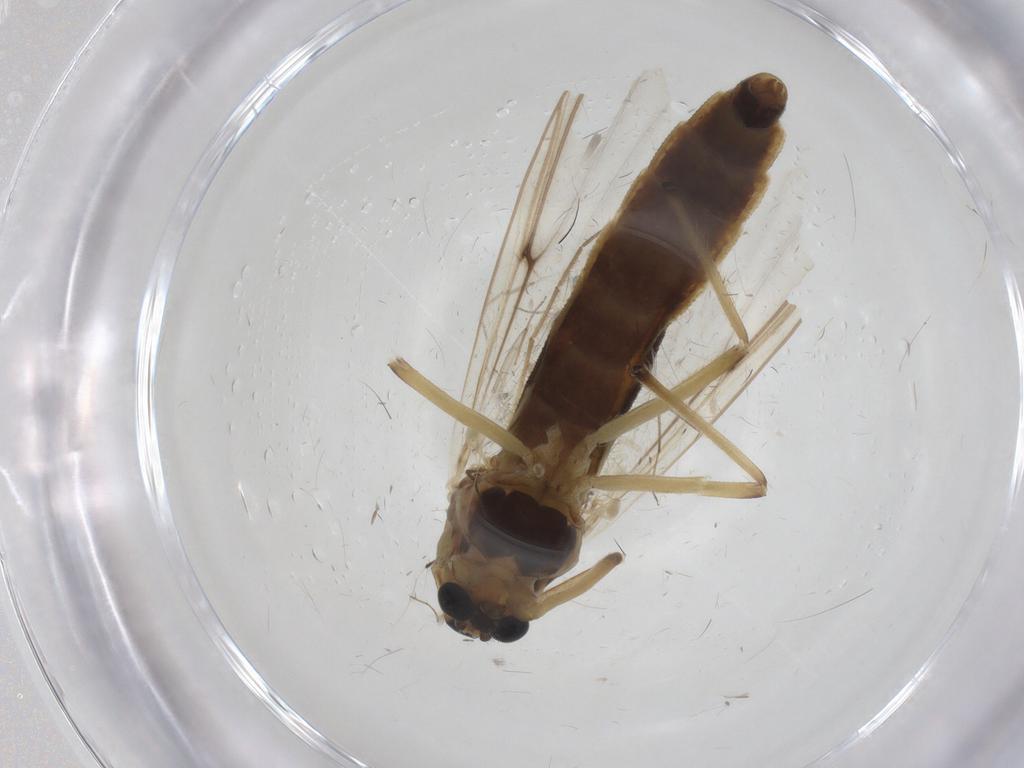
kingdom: Animalia
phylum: Arthropoda
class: Insecta
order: Diptera
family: Chironomidae
